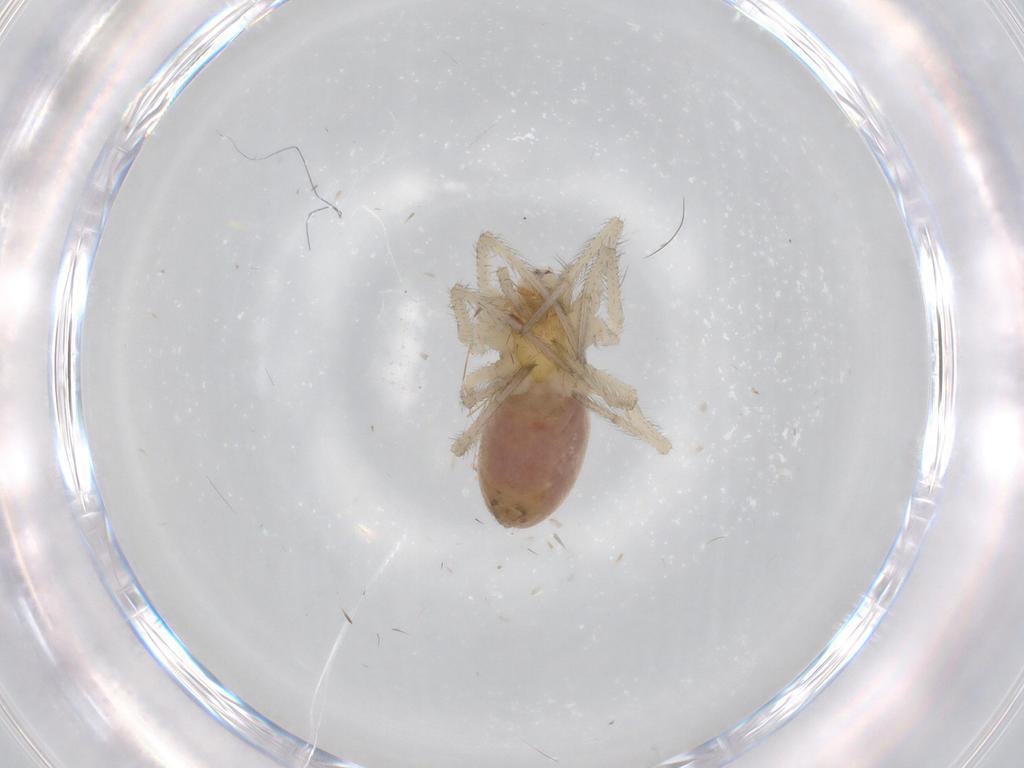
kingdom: Animalia
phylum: Arthropoda
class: Arachnida
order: Araneae
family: Araneidae
